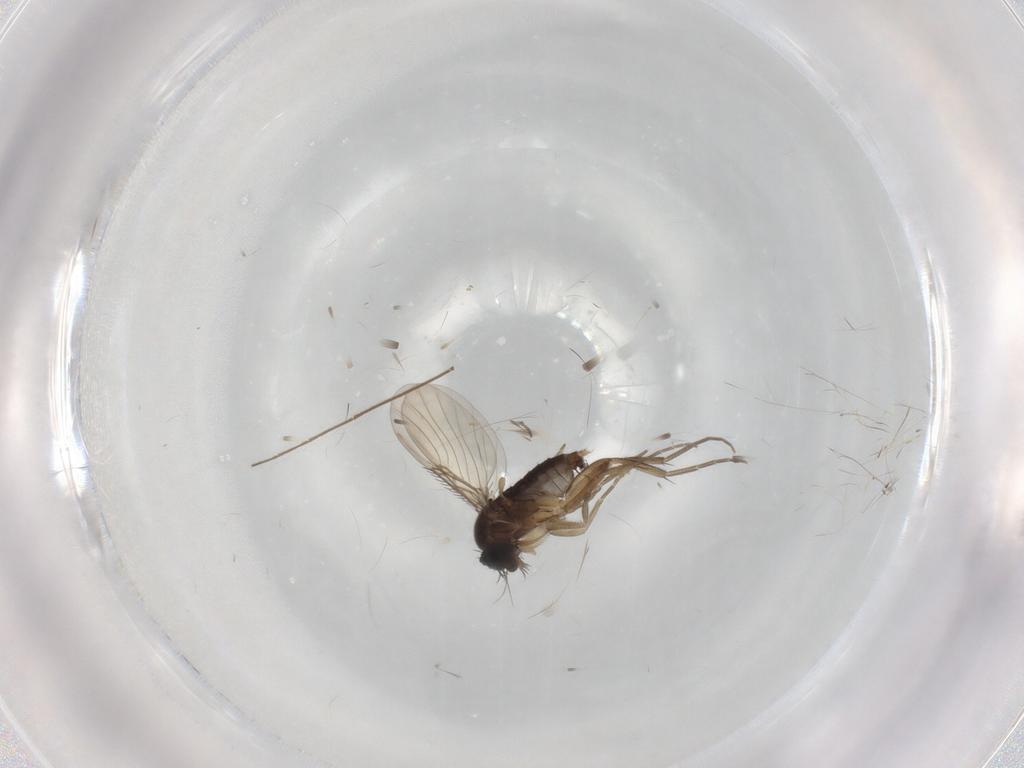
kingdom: Animalia
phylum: Arthropoda
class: Insecta
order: Diptera
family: Phoridae
